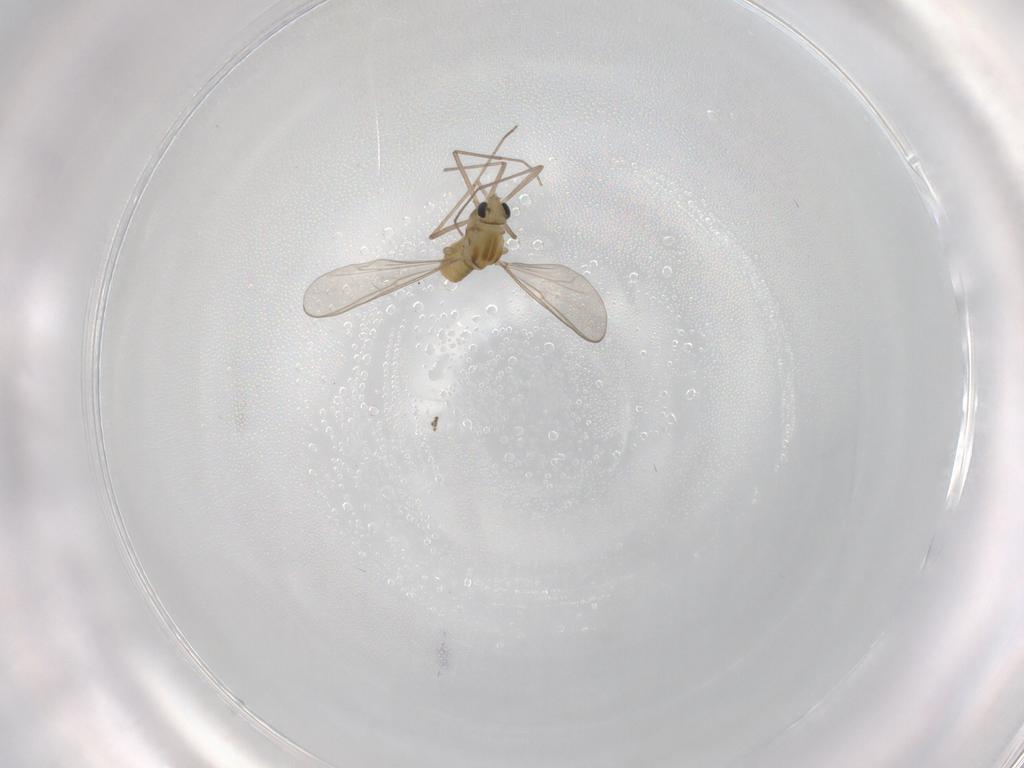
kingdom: Animalia
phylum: Arthropoda
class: Insecta
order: Diptera
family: Chironomidae
